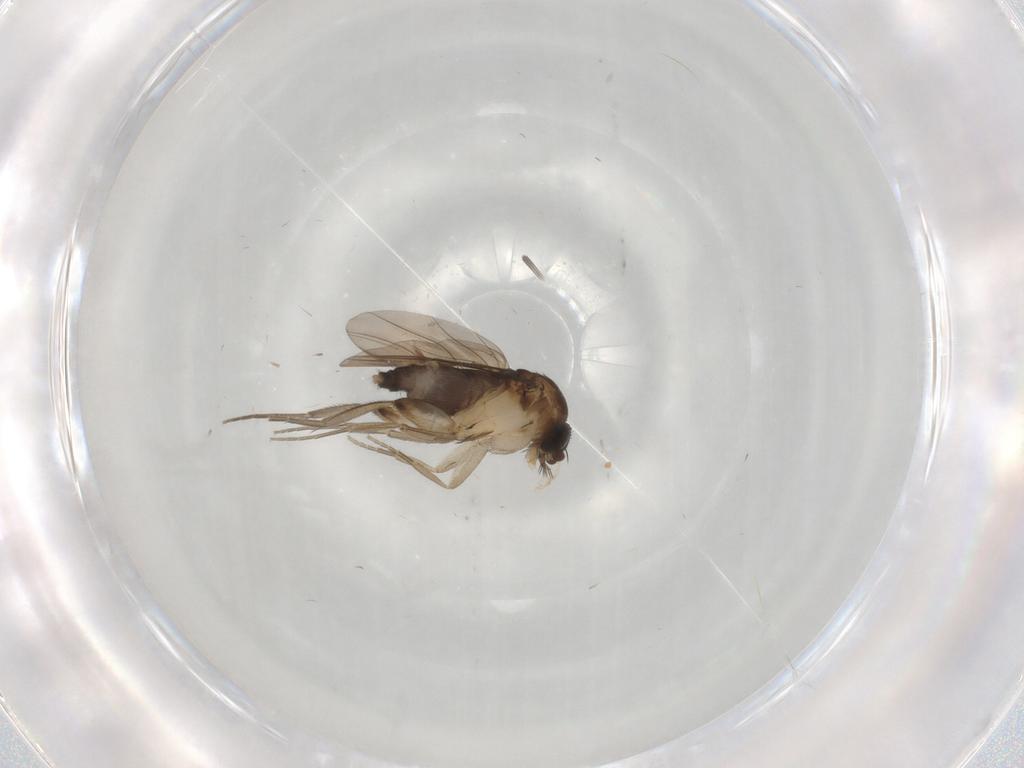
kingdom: Animalia
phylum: Arthropoda
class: Insecta
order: Diptera
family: Phoridae
